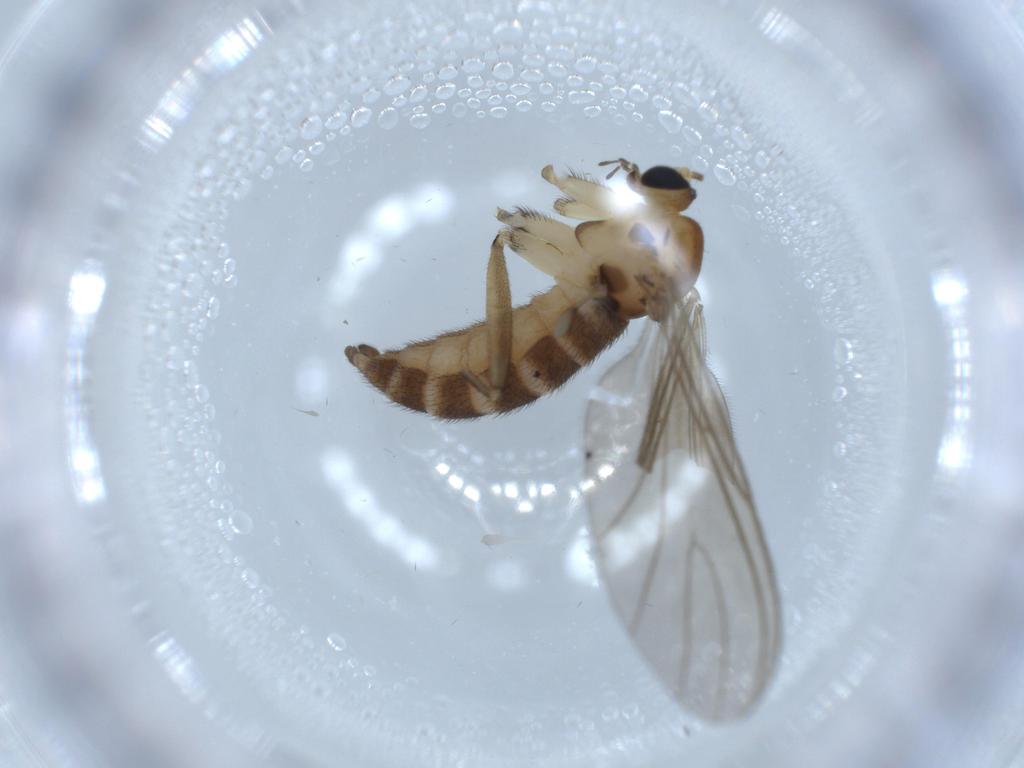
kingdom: Animalia
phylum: Arthropoda
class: Insecta
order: Diptera
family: Sciaridae
